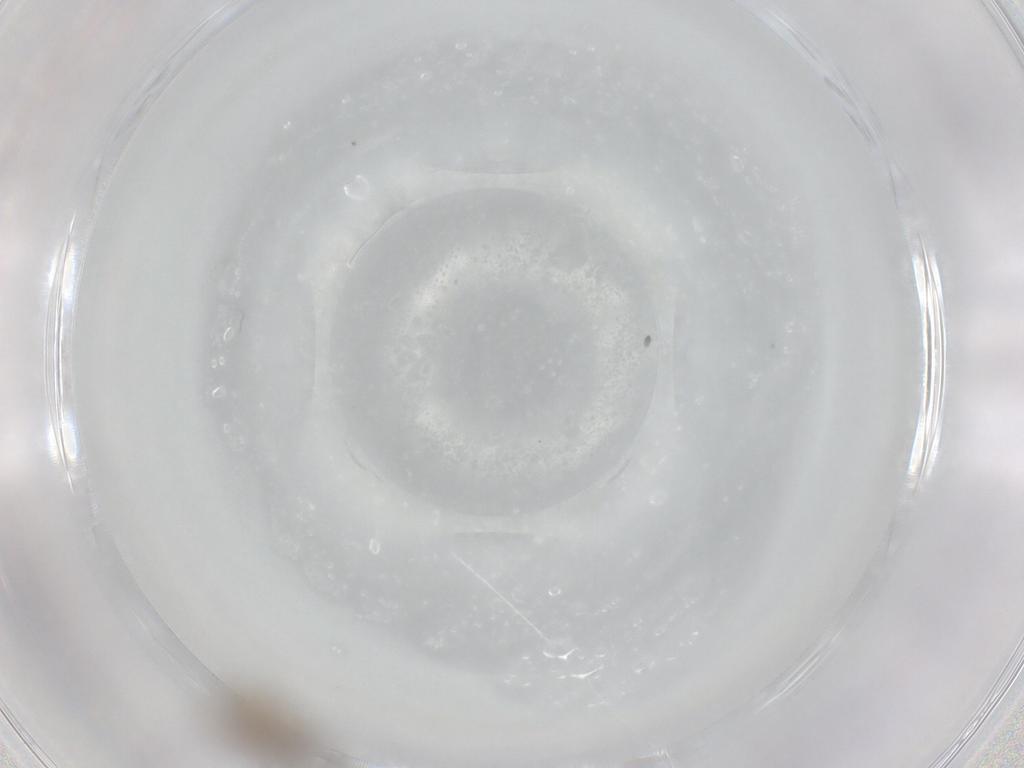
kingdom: Animalia
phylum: Arthropoda
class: Insecta
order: Diptera
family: Cecidomyiidae
